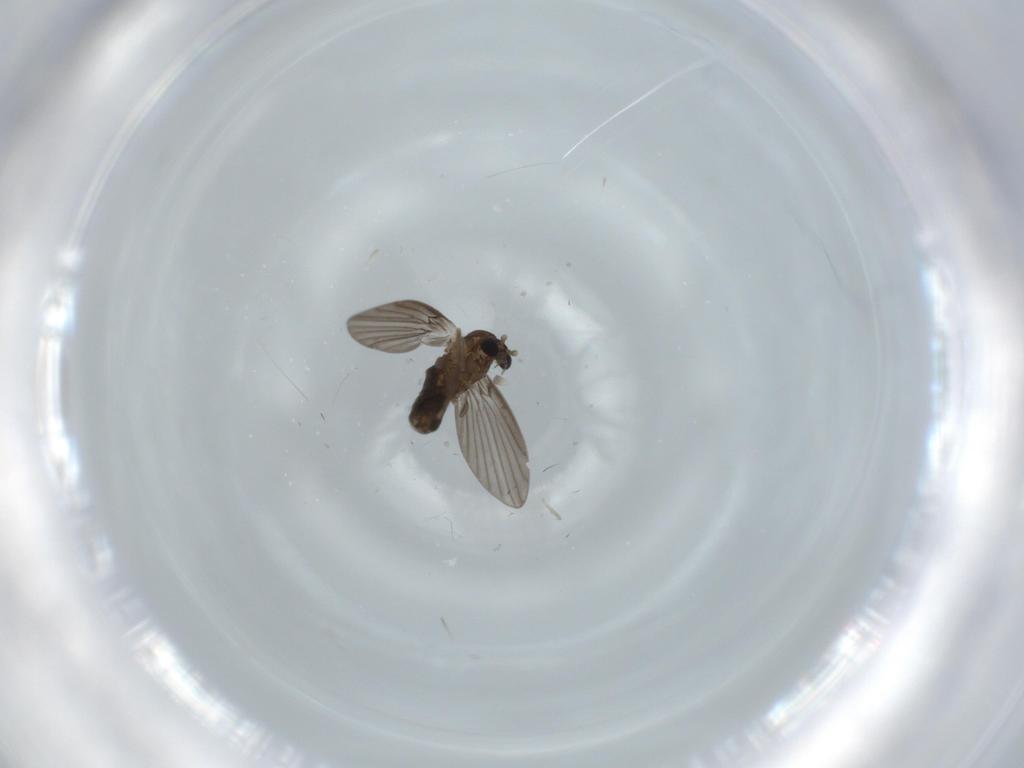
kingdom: Animalia
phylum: Arthropoda
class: Insecta
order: Diptera
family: Psychodidae
